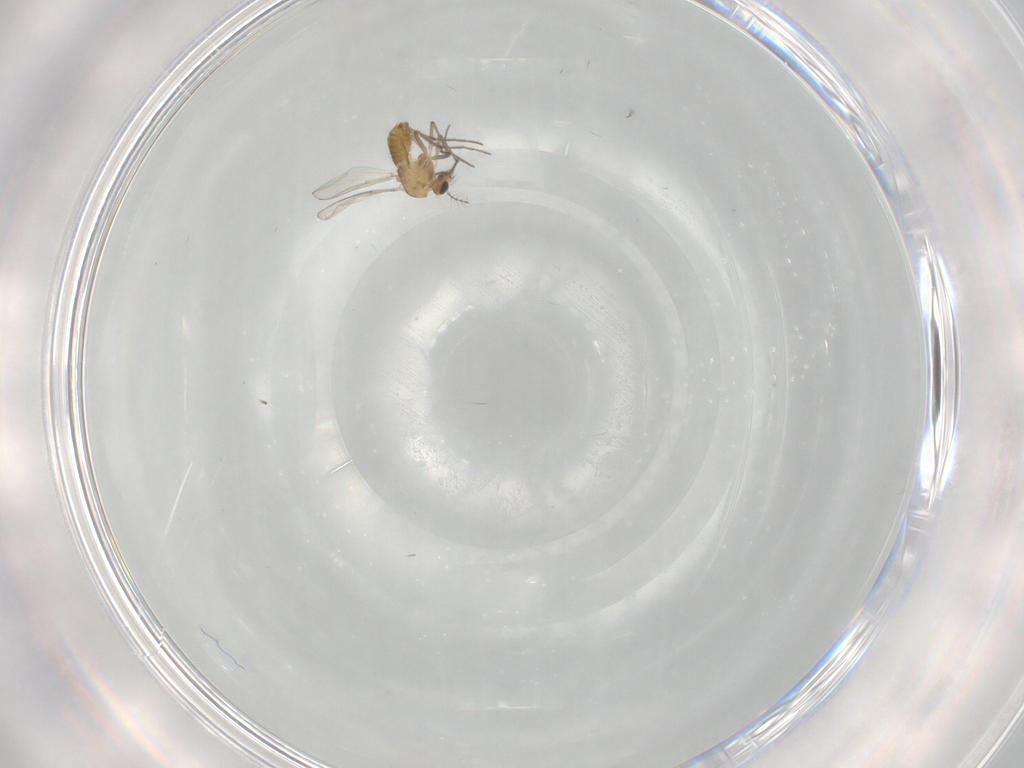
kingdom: Animalia
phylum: Arthropoda
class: Insecta
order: Diptera
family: Chironomidae
